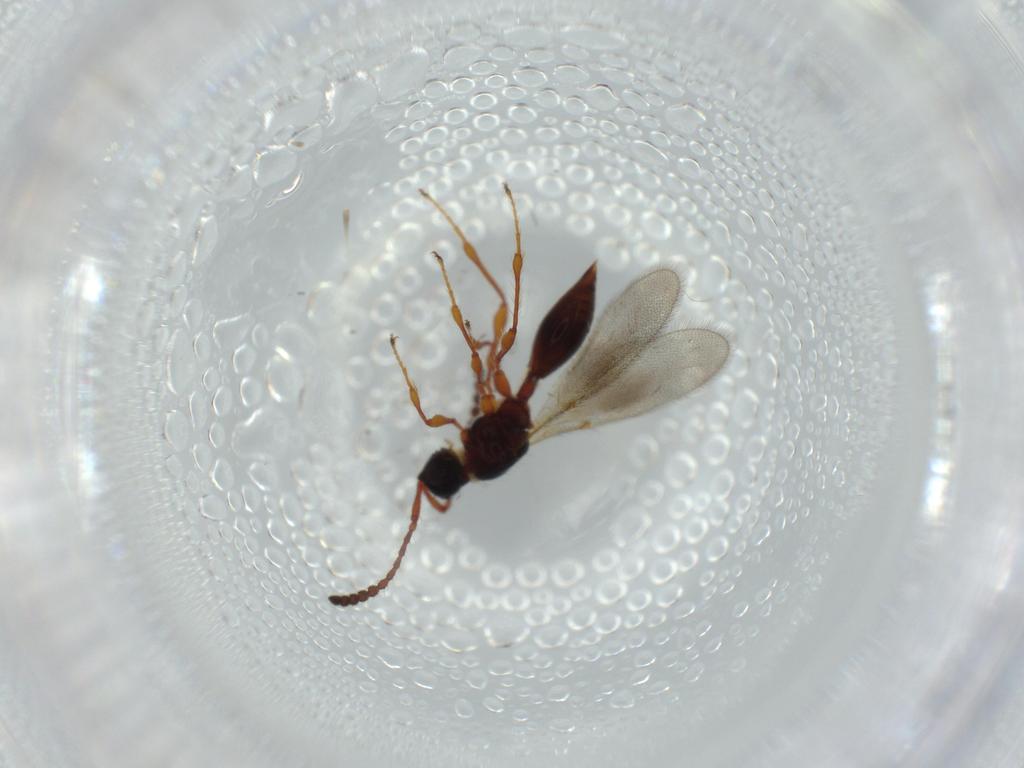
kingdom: Animalia
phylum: Arthropoda
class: Insecta
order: Hymenoptera
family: Diapriidae
